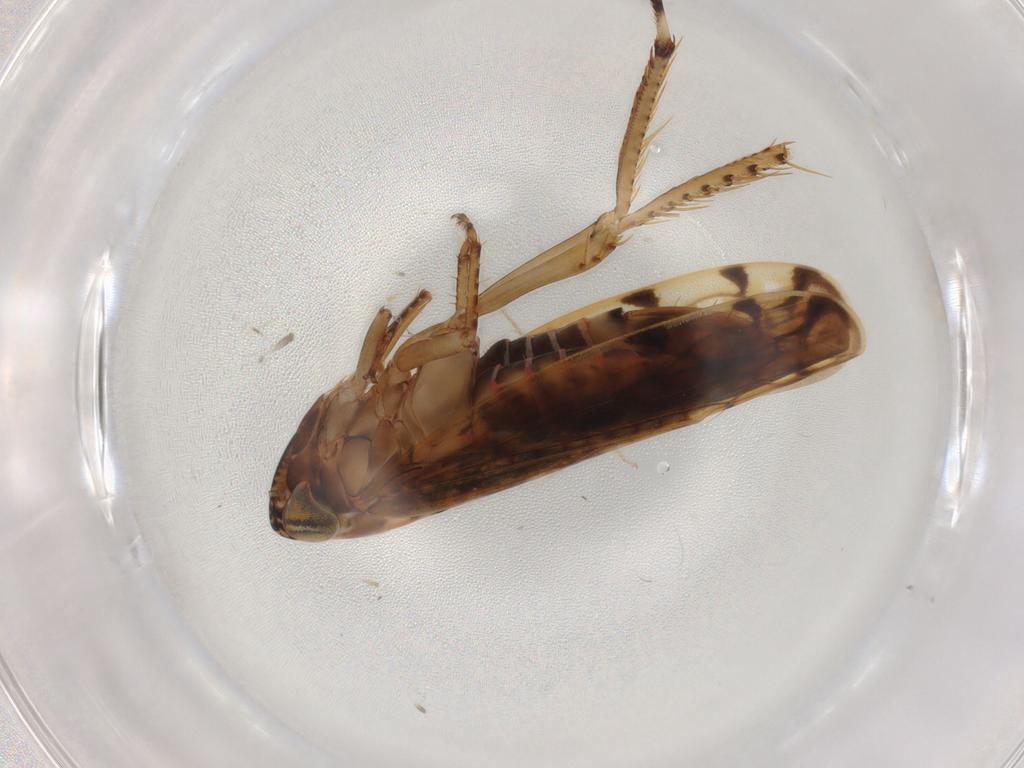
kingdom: Animalia
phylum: Arthropoda
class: Insecta
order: Hemiptera
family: Cicadellidae
